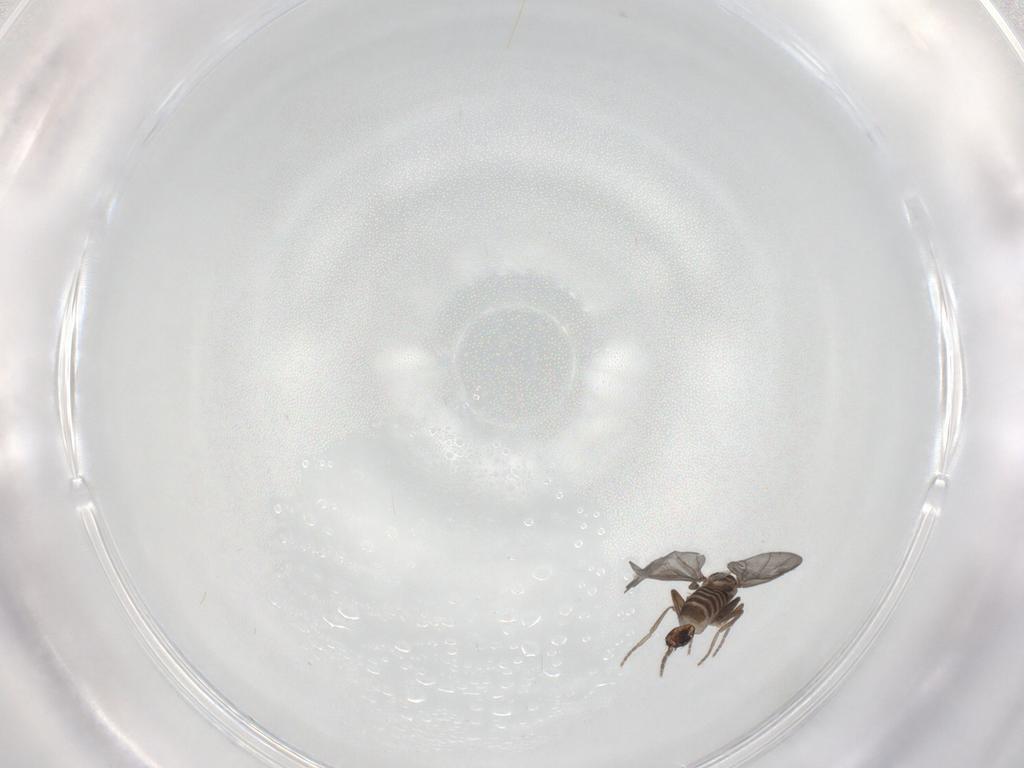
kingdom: Animalia
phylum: Arthropoda
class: Insecta
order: Diptera
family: Phoridae
